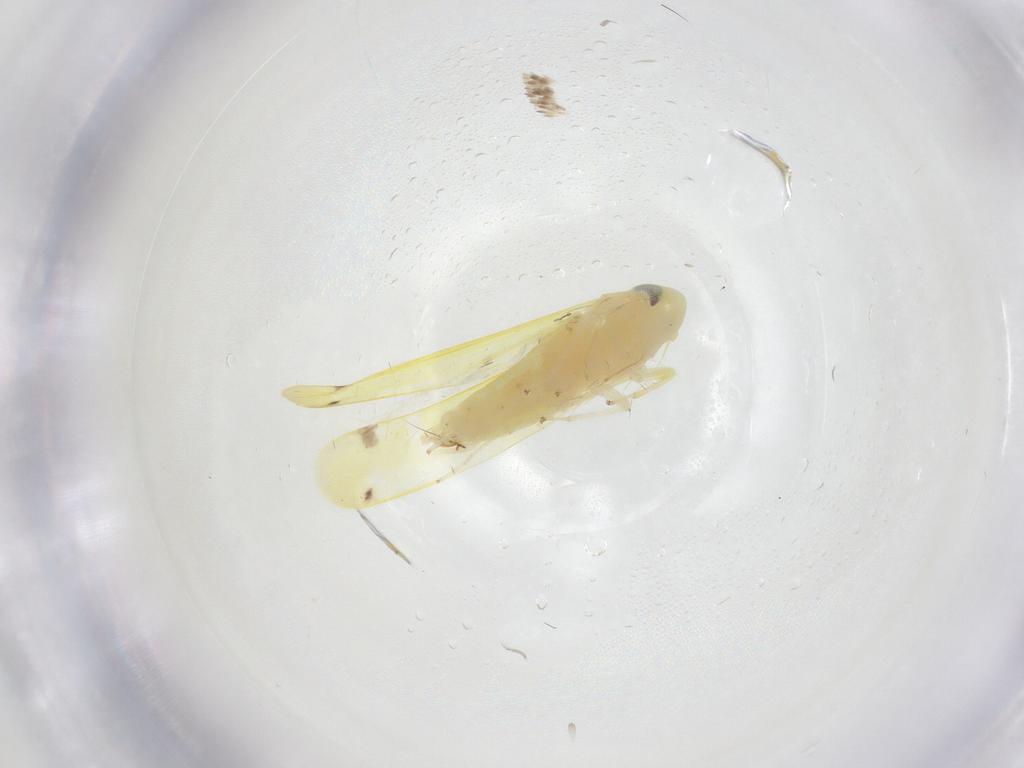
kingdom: Animalia
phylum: Arthropoda
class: Insecta
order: Hemiptera
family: Cicadellidae
